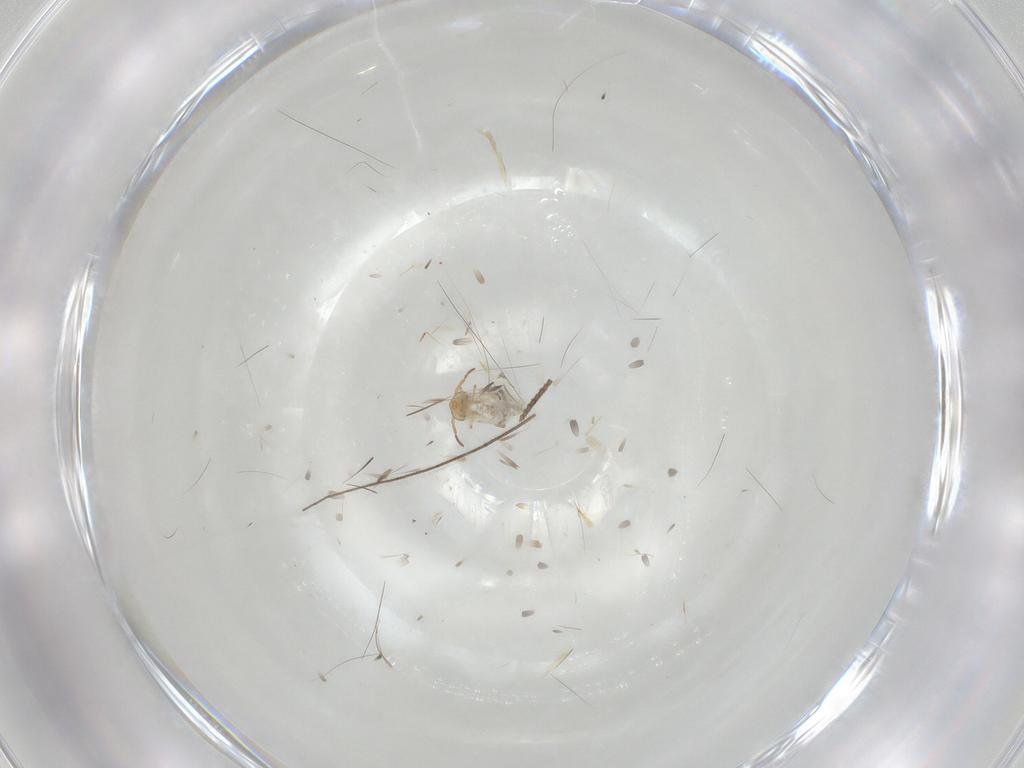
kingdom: Animalia
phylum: Arthropoda
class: Collembola
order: Symphypleona
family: Bourletiellidae
